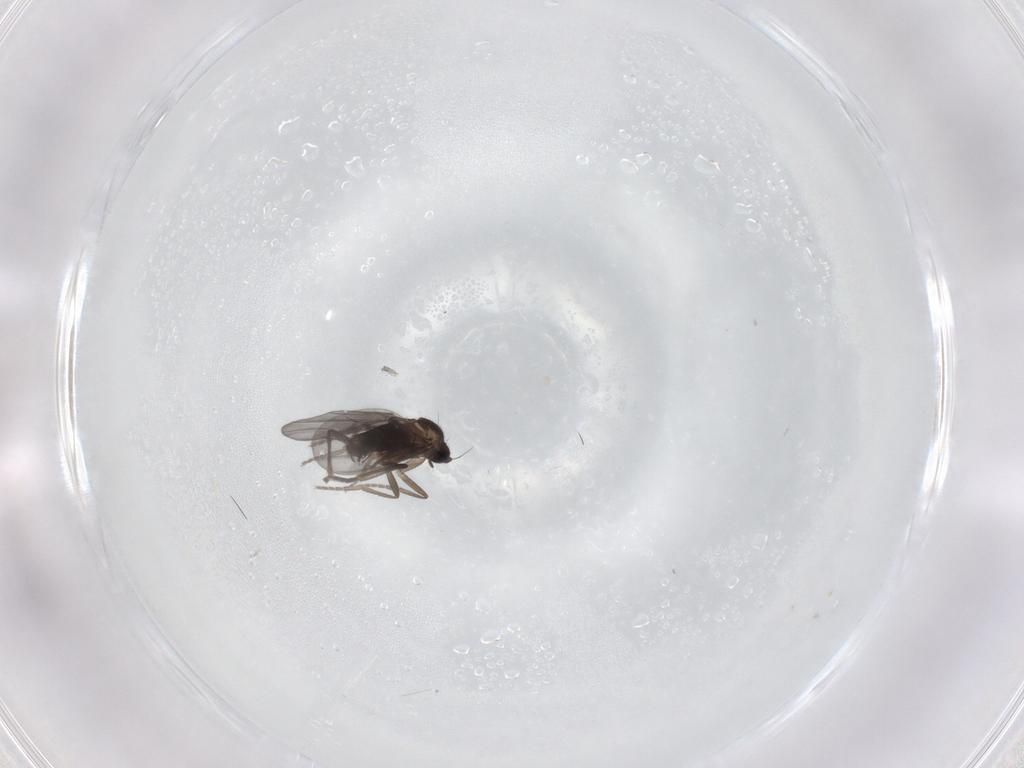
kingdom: Animalia
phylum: Arthropoda
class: Insecta
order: Diptera
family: Phoridae
